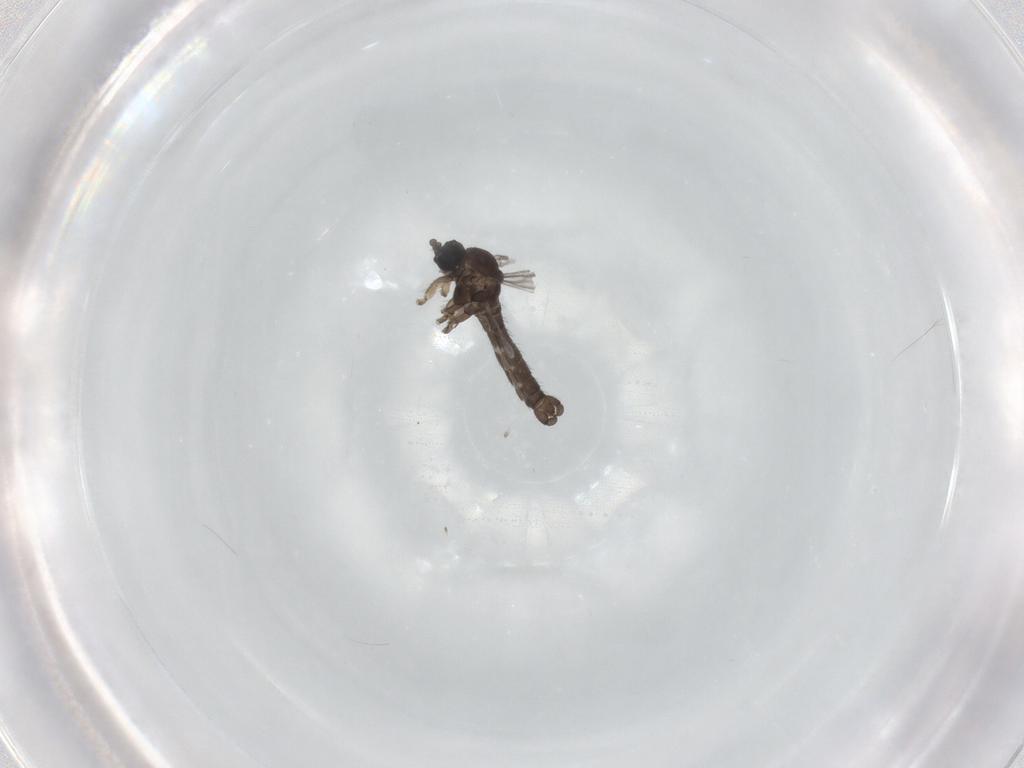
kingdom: Animalia
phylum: Arthropoda
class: Insecta
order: Diptera
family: Sciaridae
